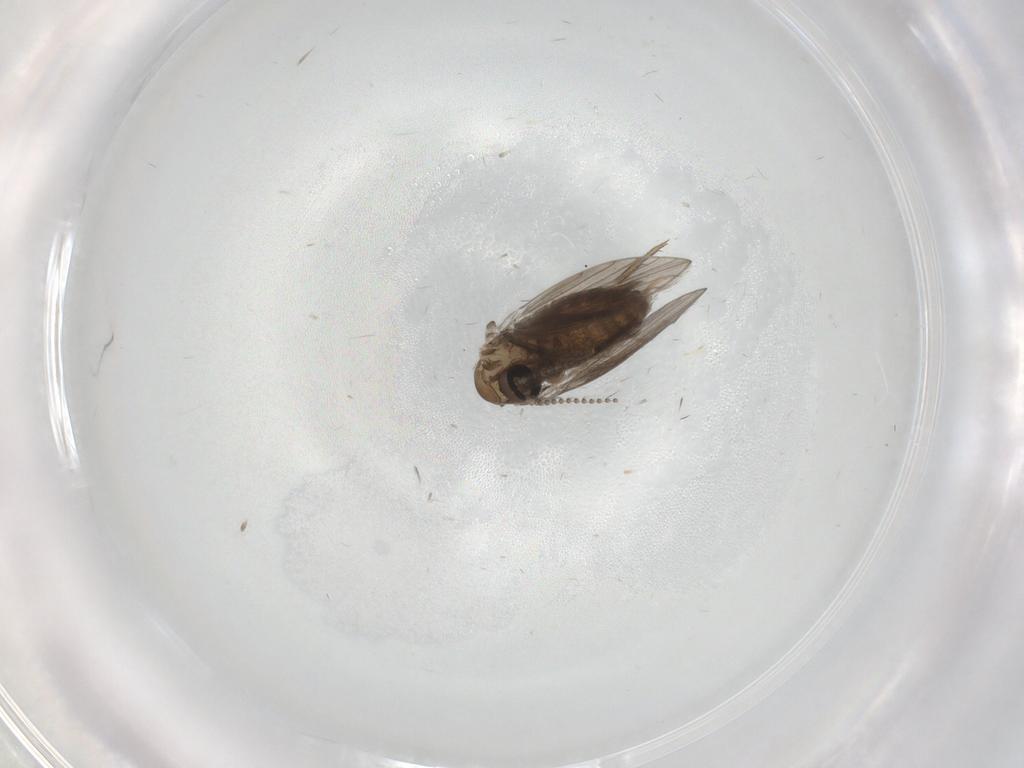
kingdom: Animalia
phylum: Arthropoda
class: Insecta
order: Diptera
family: Psychodidae
